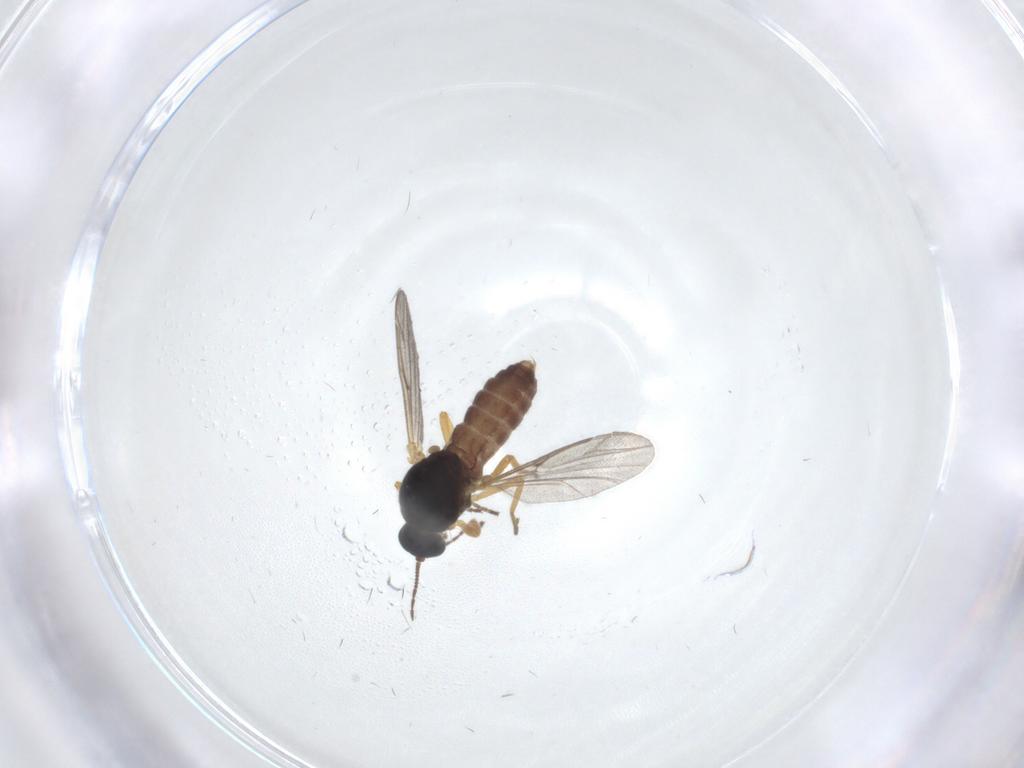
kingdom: Animalia
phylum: Arthropoda
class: Insecta
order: Diptera
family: Ceratopogonidae
